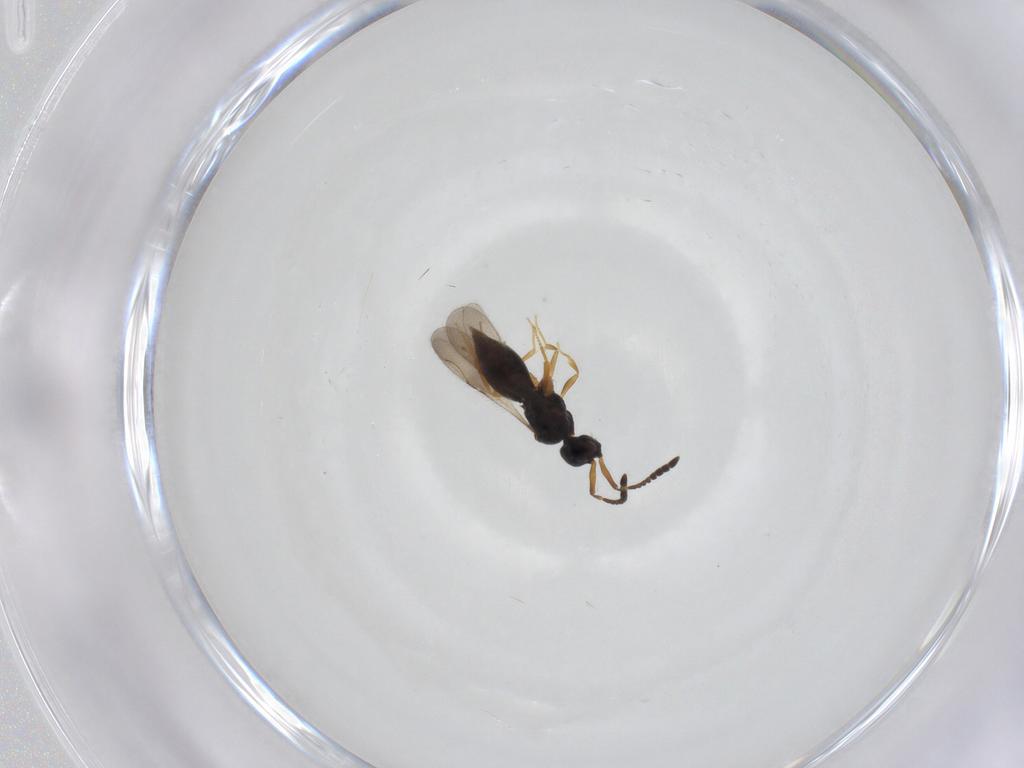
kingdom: Animalia
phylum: Arthropoda
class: Insecta
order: Hymenoptera
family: Ceraphronidae
